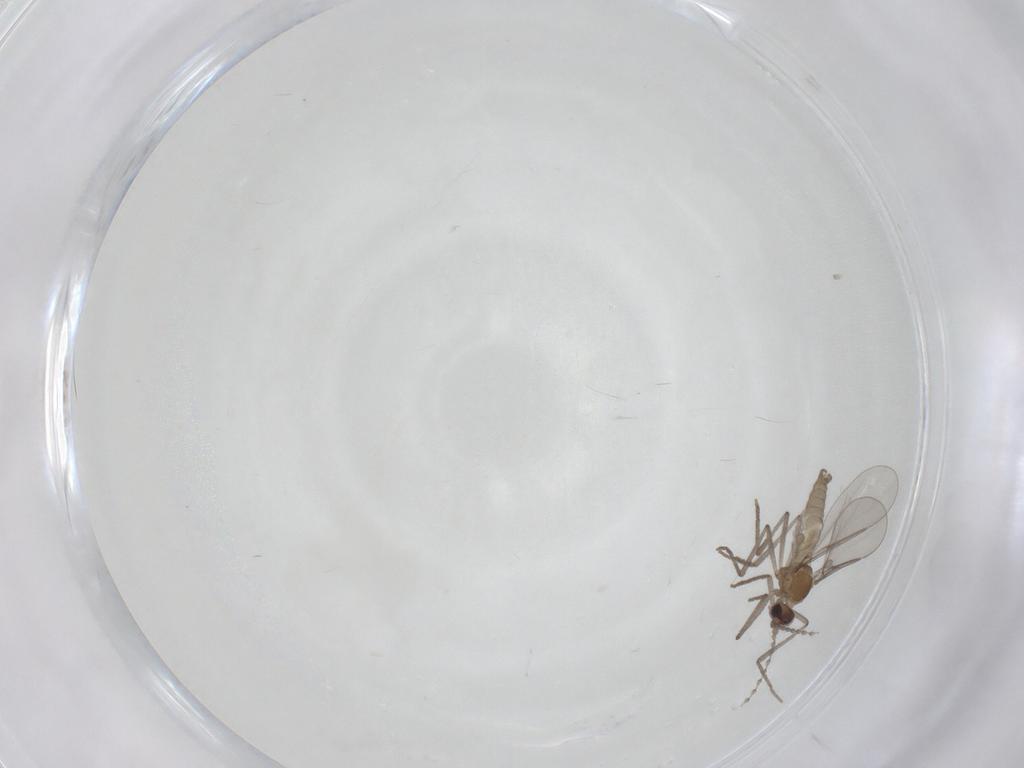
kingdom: Animalia
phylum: Arthropoda
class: Insecta
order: Diptera
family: Cecidomyiidae
